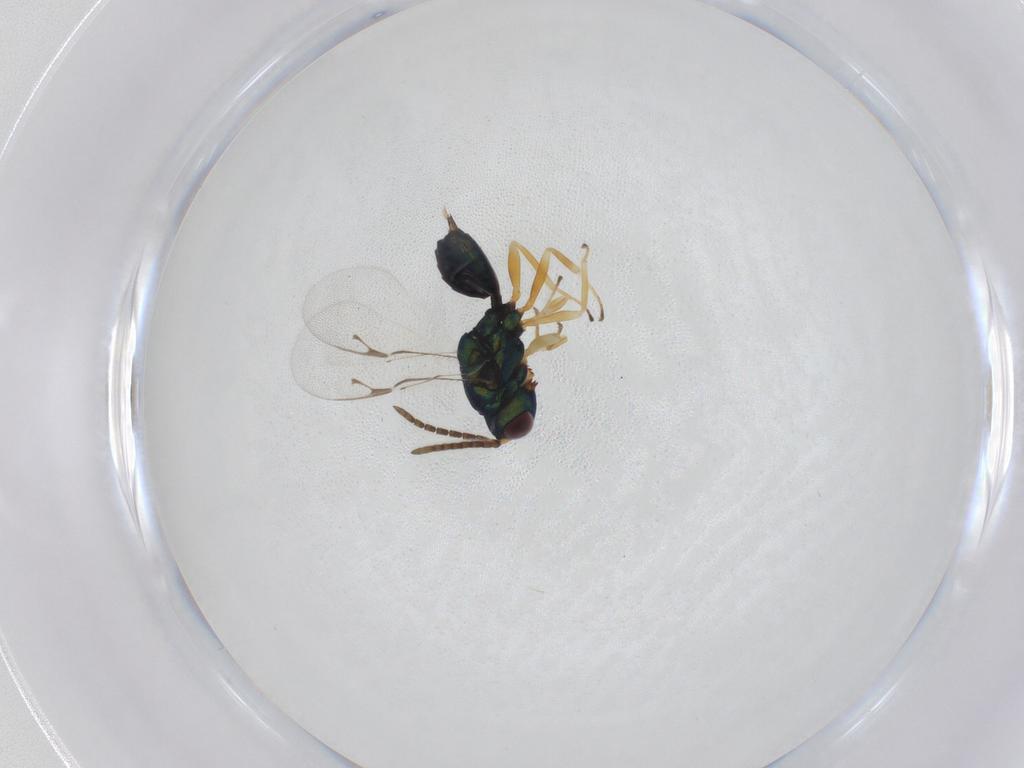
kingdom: Animalia
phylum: Arthropoda
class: Insecta
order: Hymenoptera
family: Pteromalidae
